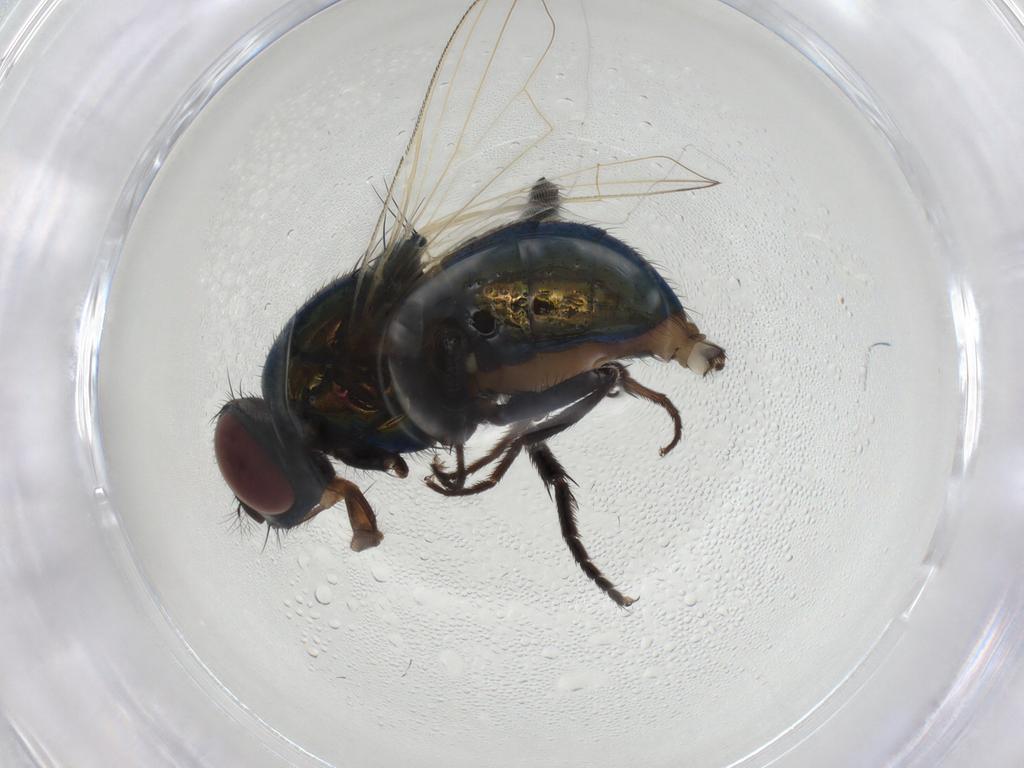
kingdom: Animalia
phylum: Arthropoda
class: Insecta
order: Diptera
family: Muscidae
